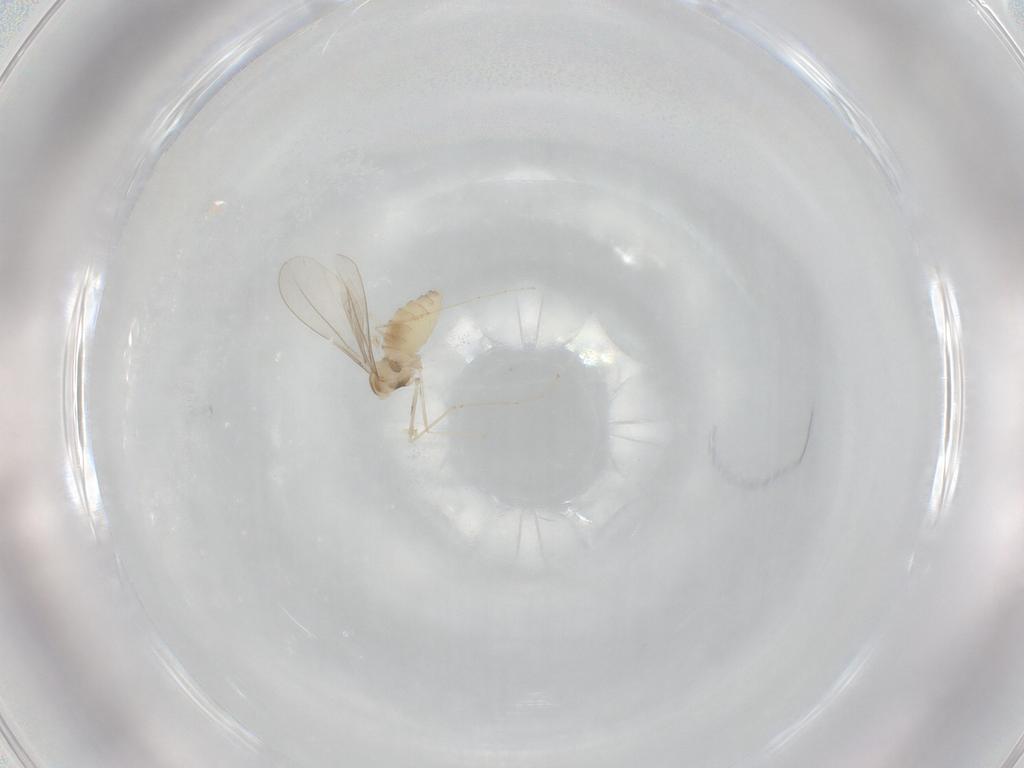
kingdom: Animalia
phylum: Arthropoda
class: Insecta
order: Diptera
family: Cecidomyiidae
